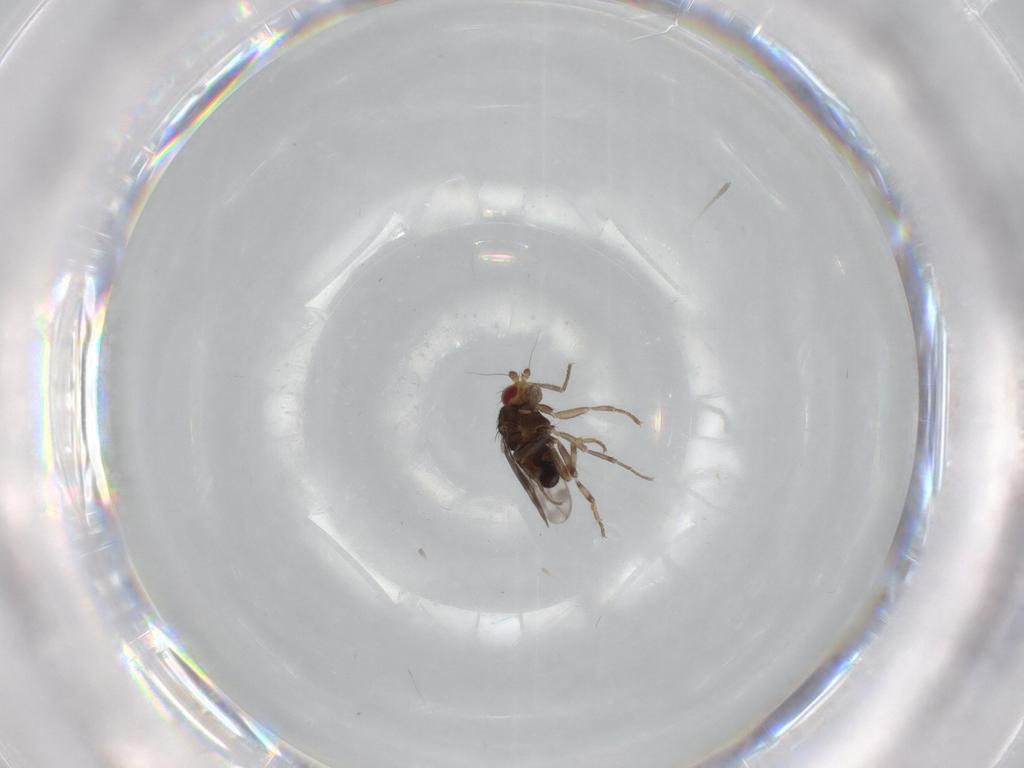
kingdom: Animalia
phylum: Arthropoda
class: Insecta
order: Diptera
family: Sphaeroceridae
